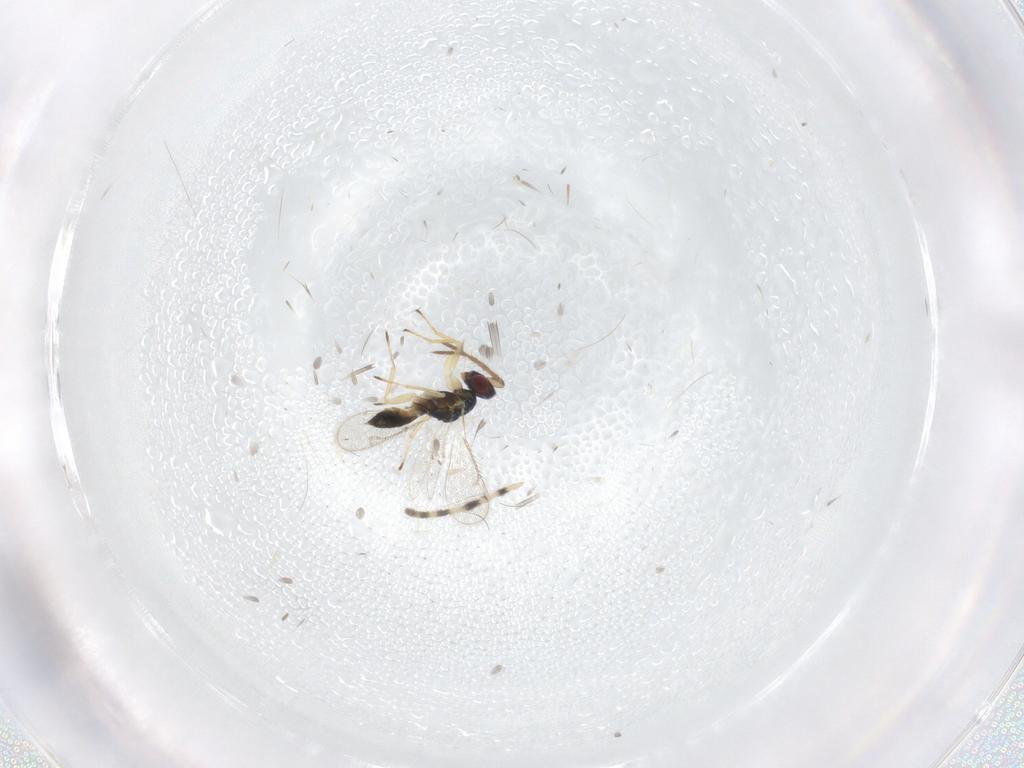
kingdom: Animalia
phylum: Arthropoda
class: Insecta
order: Hymenoptera
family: Eulophidae
